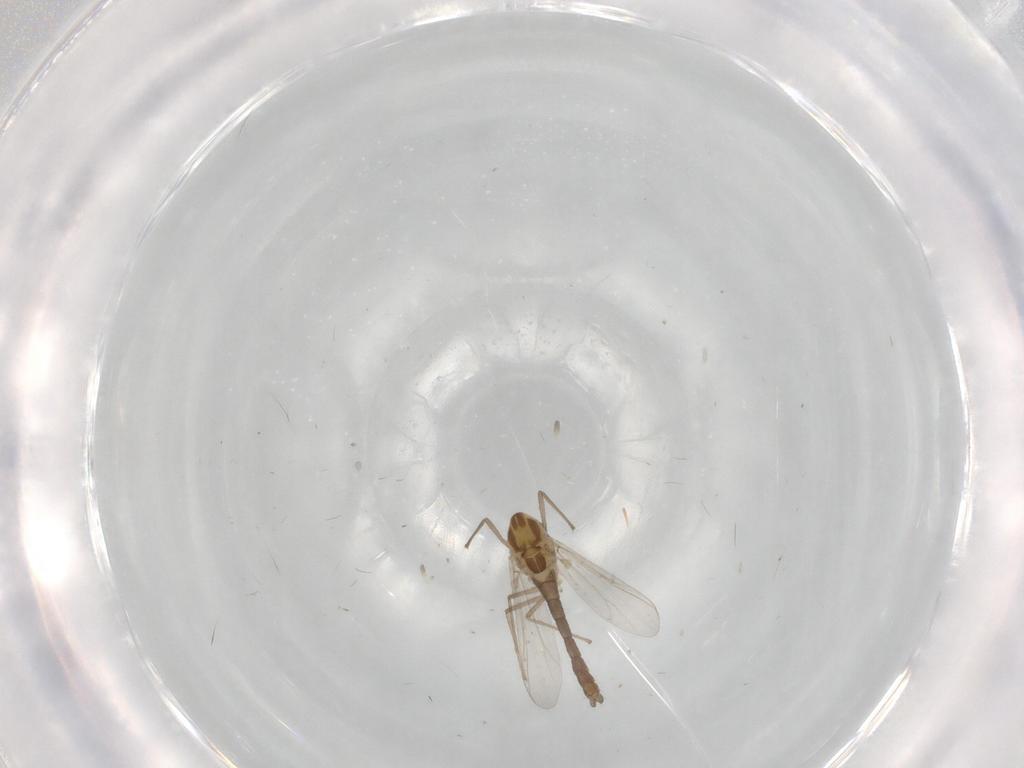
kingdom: Animalia
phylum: Arthropoda
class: Insecta
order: Diptera
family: Chironomidae
